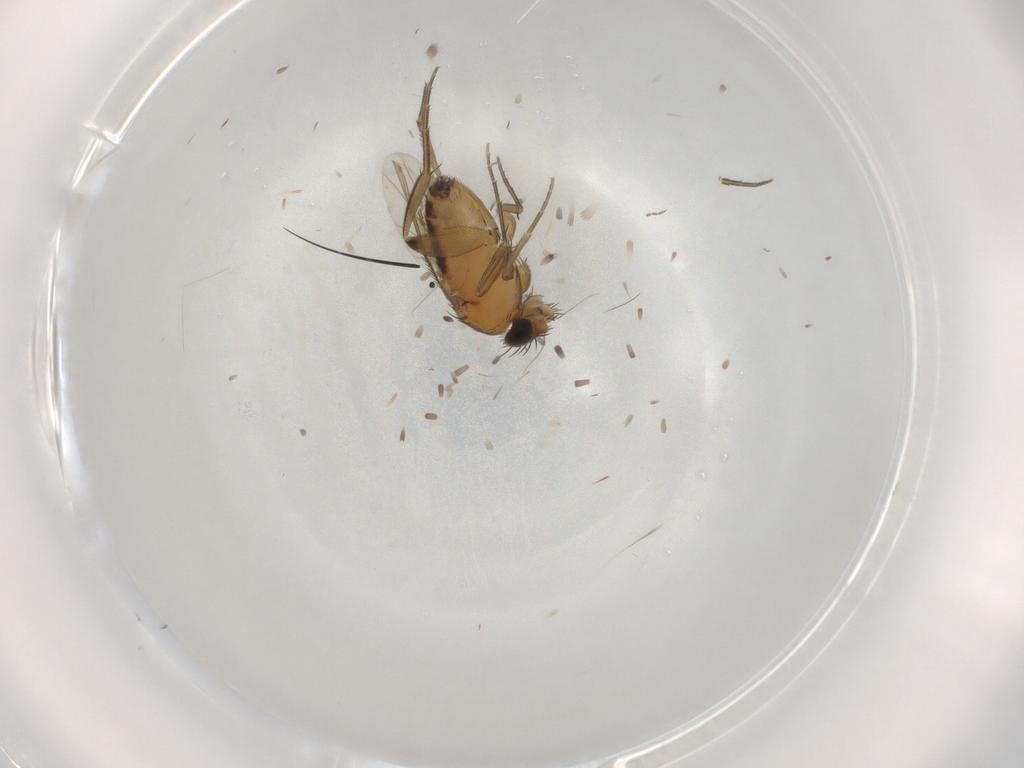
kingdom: Animalia
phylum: Arthropoda
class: Insecta
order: Diptera
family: Phoridae
